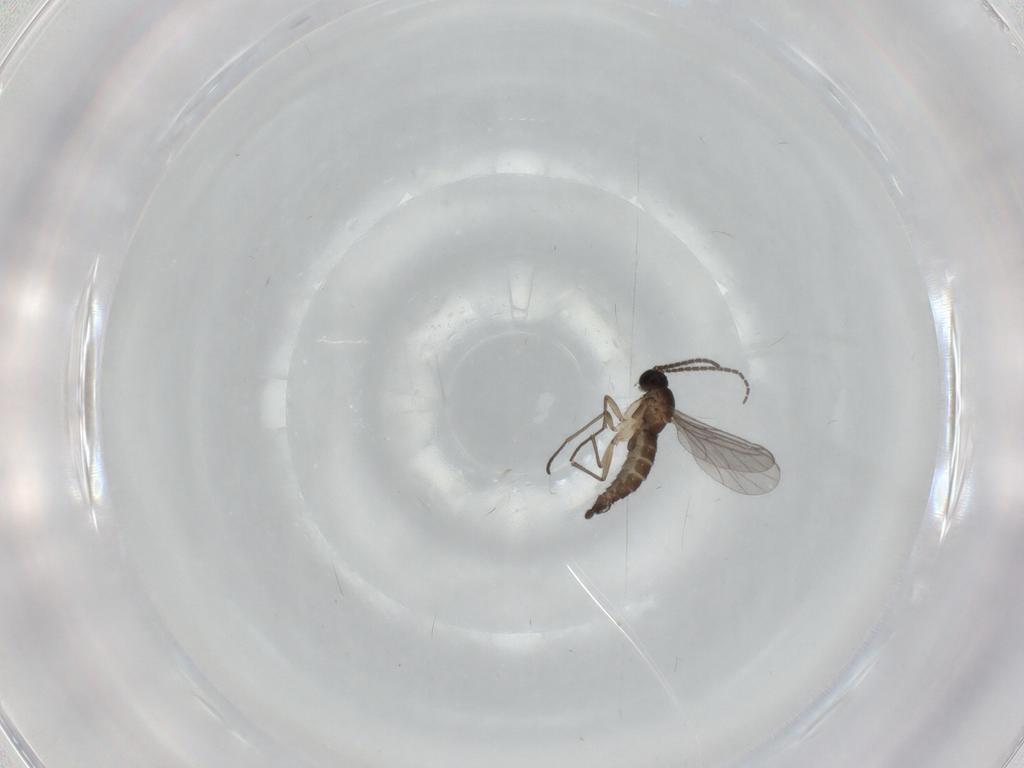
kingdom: Animalia
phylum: Arthropoda
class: Insecta
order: Diptera
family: Sciaridae
